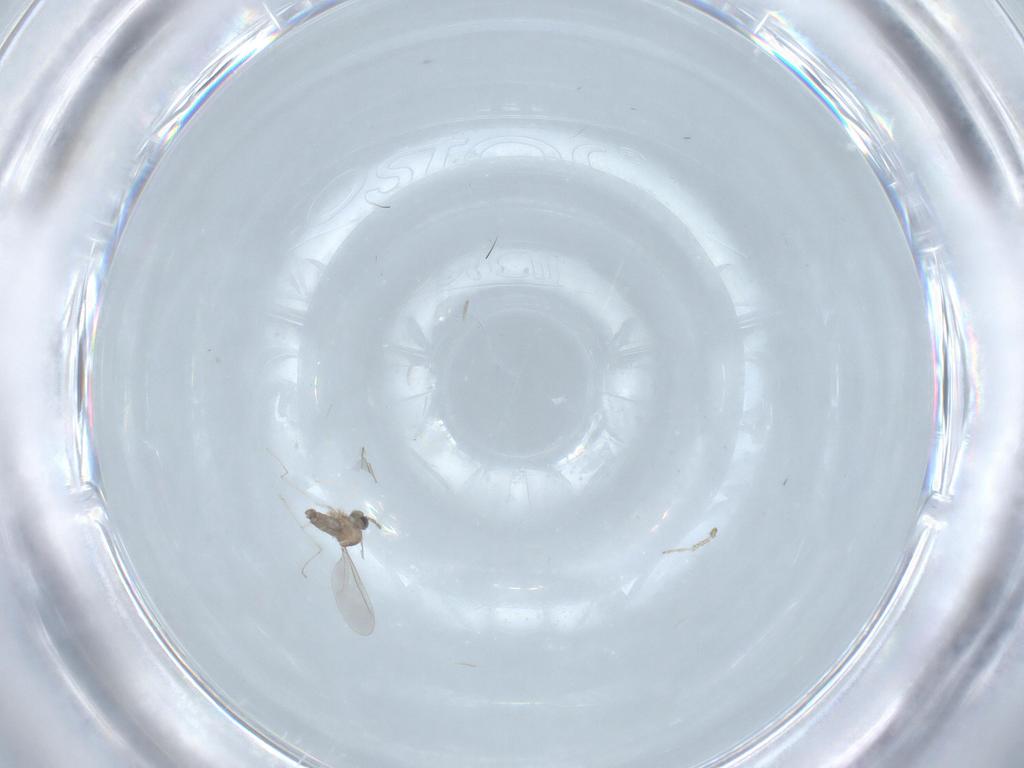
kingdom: Animalia
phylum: Arthropoda
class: Insecta
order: Diptera
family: Cecidomyiidae
